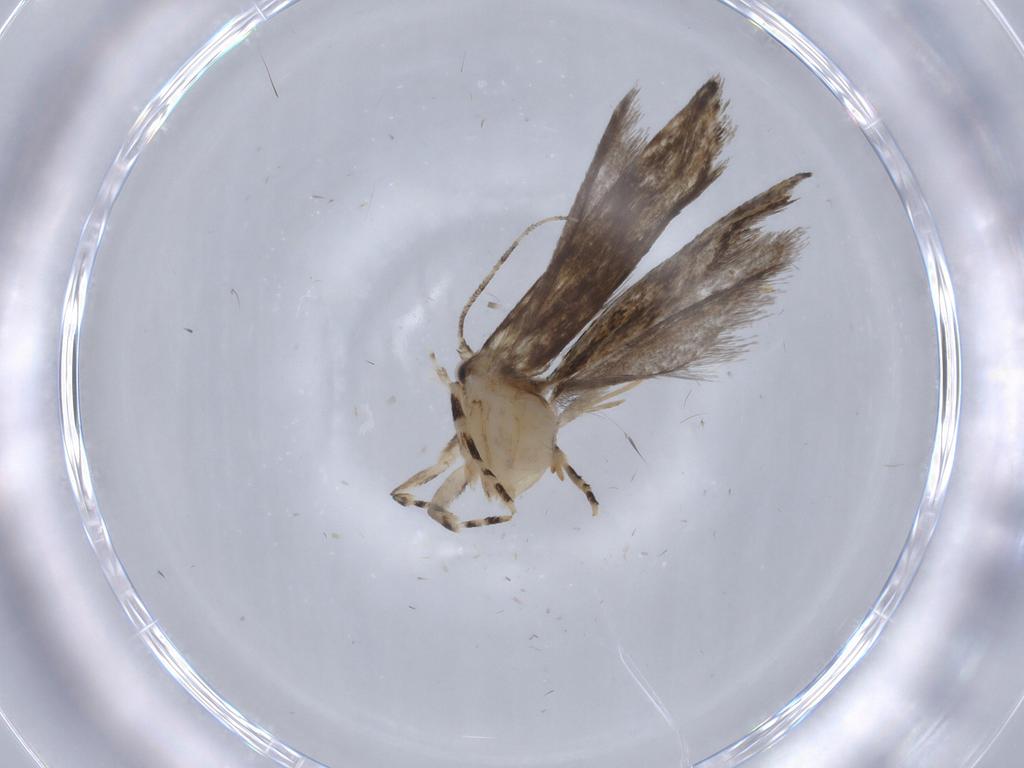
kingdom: Animalia
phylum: Arthropoda
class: Insecta
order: Lepidoptera
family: Tineidae
